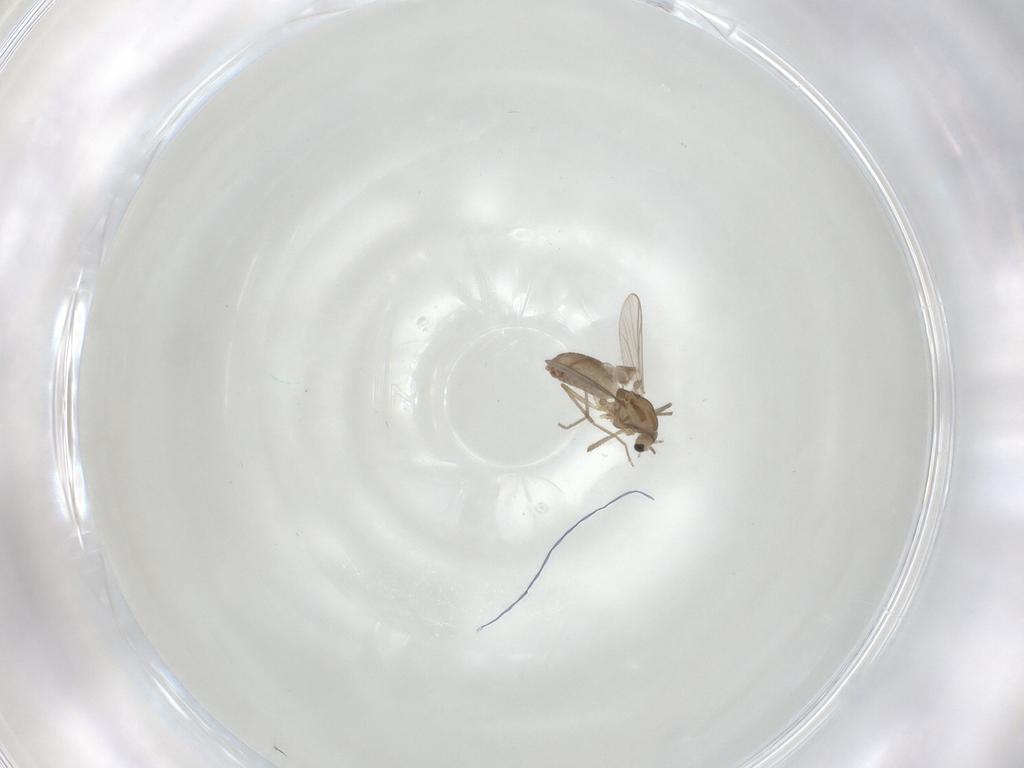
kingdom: Animalia
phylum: Arthropoda
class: Insecta
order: Diptera
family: Chironomidae
